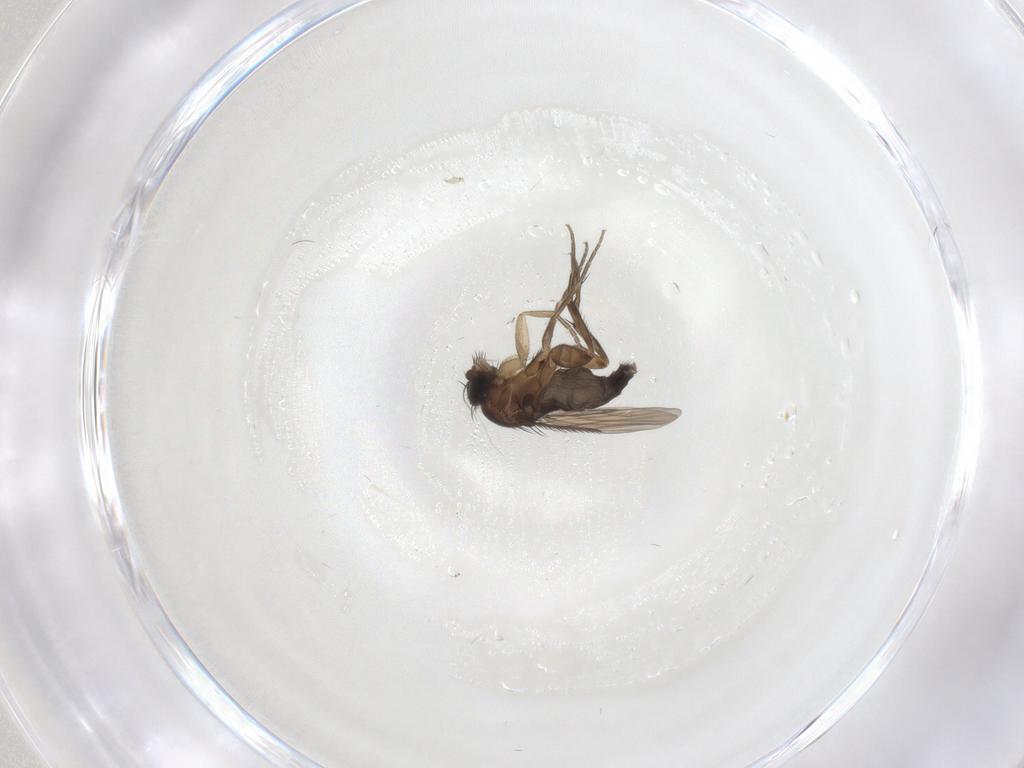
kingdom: Animalia
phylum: Arthropoda
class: Insecta
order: Diptera
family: Phoridae
